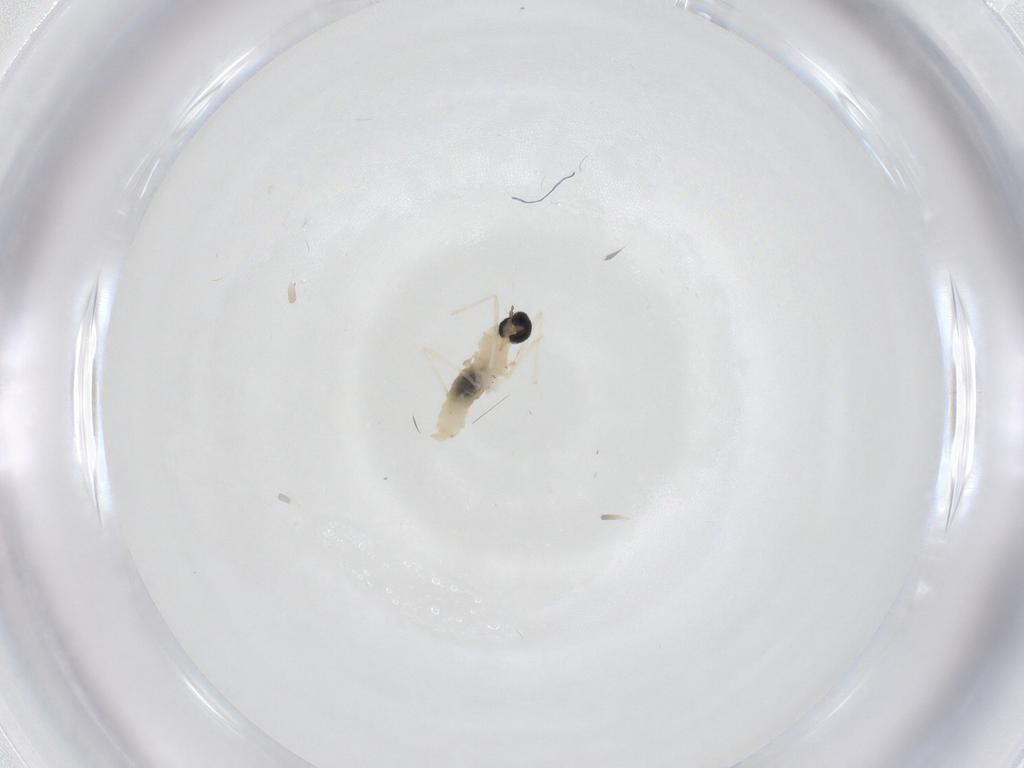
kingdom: Animalia
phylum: Arthropoda
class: Insecta
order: Diptera
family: Cecidomyiidae
